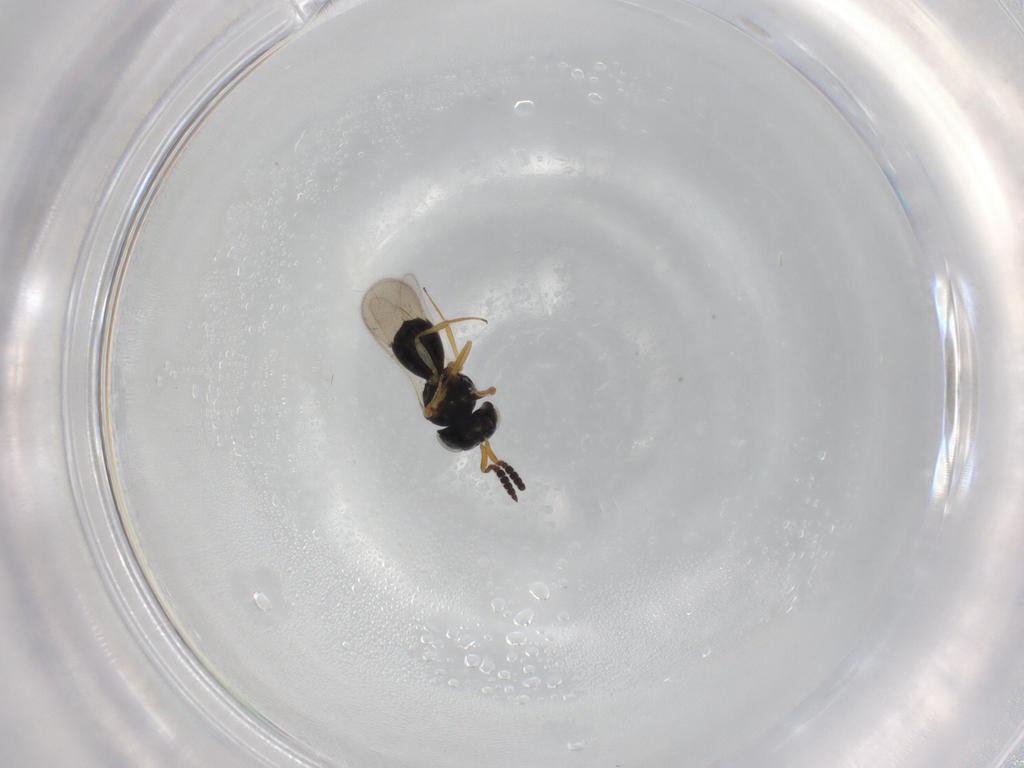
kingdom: Animalia
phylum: Arthropoda
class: Insecta
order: Hymenoptera
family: Scelionidae
